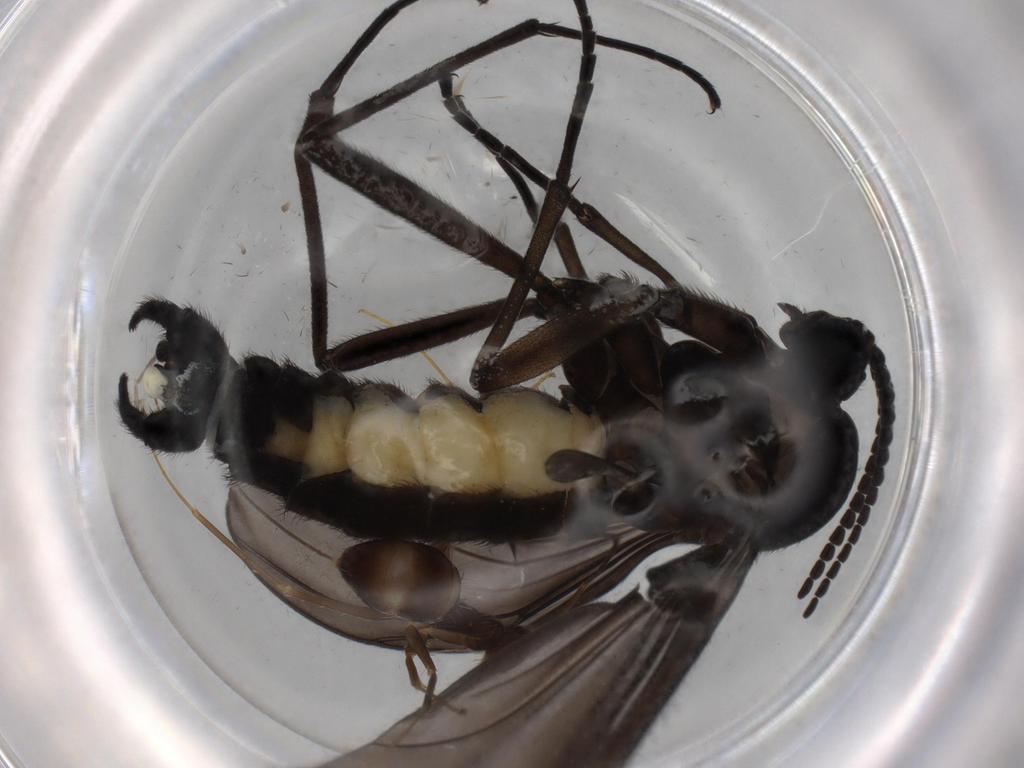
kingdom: Animalia
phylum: Arthropoda
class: Insecta
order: Diptera
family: Sciaridae
